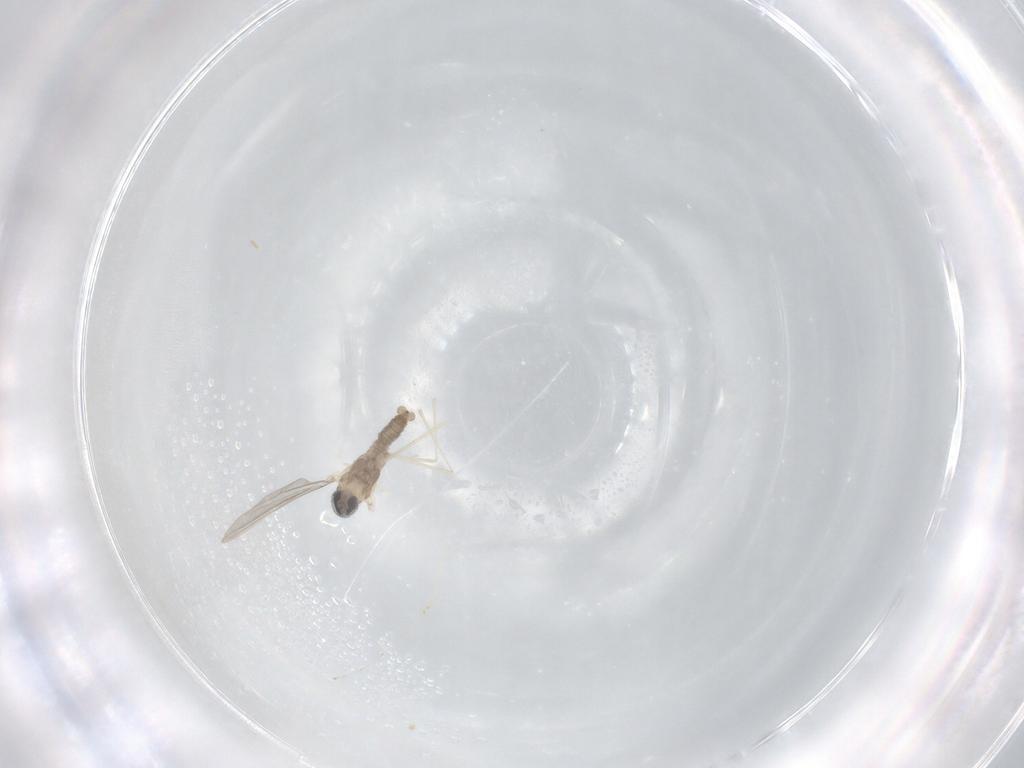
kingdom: Animalia
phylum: Arthropoda
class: Insecta
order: Diptera
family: Cecidomyiidae
